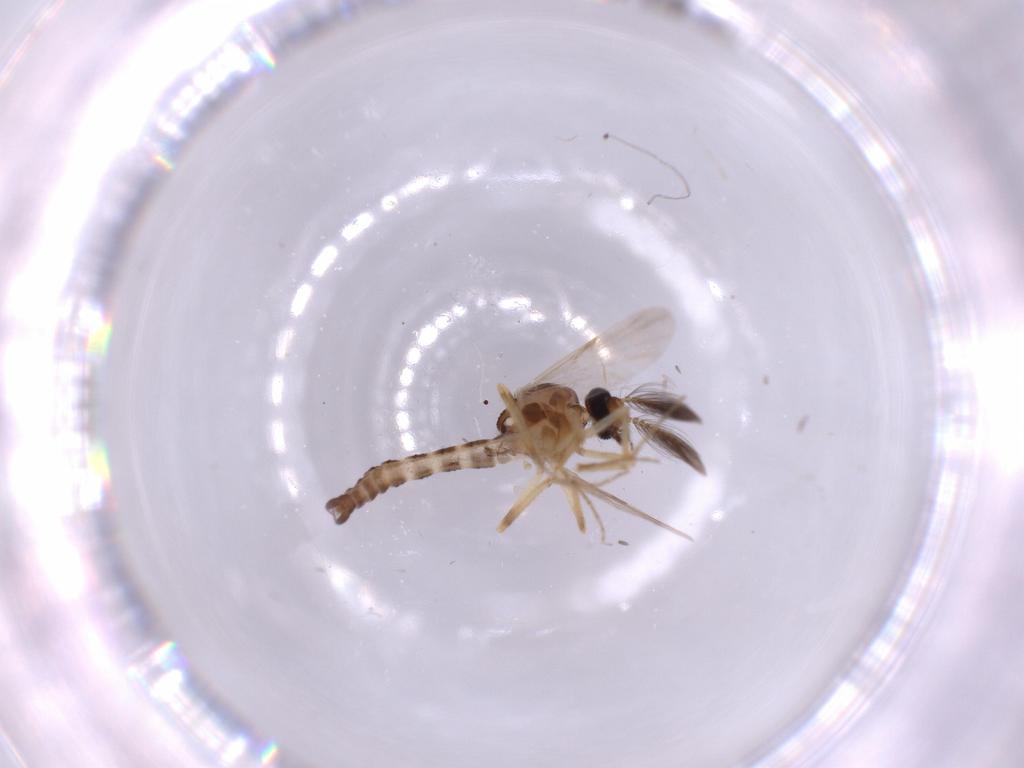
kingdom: Animalia
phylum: Arthropoda
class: Insecta
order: Diptera
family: Ceratopogonidae
